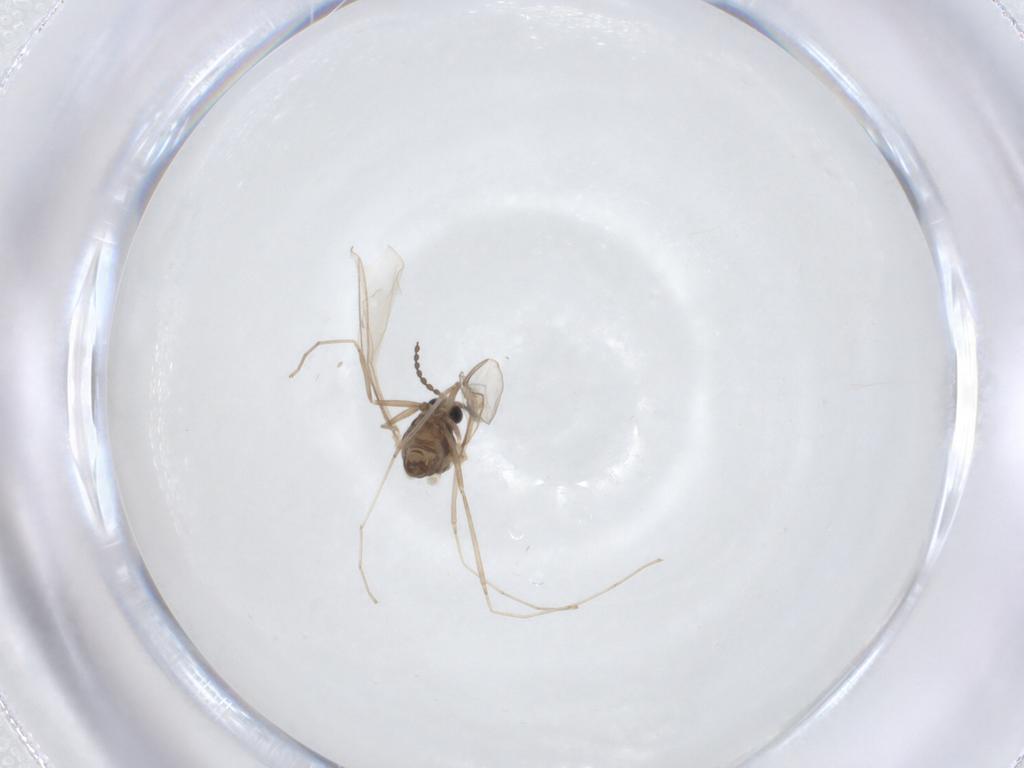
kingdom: Animalia
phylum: Arthropoda
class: Insecta
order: Diptera
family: Cecidomyiidae
